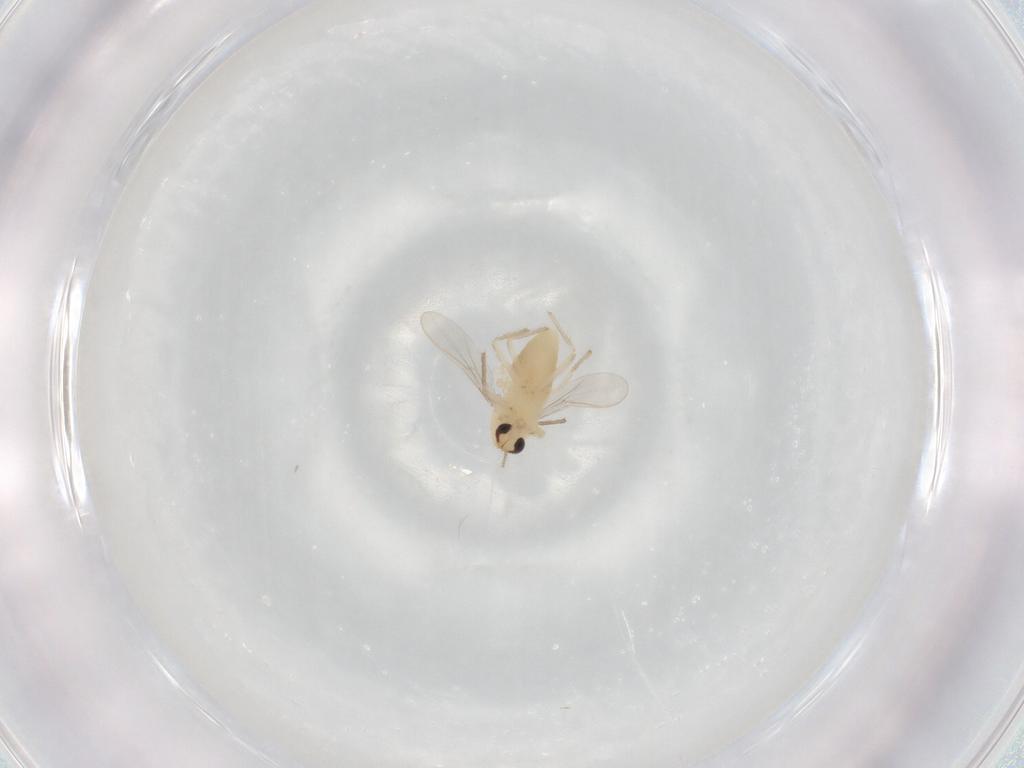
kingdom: Animalia
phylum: Arthropoda
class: Insecta
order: Diptera
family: Chironomidae
